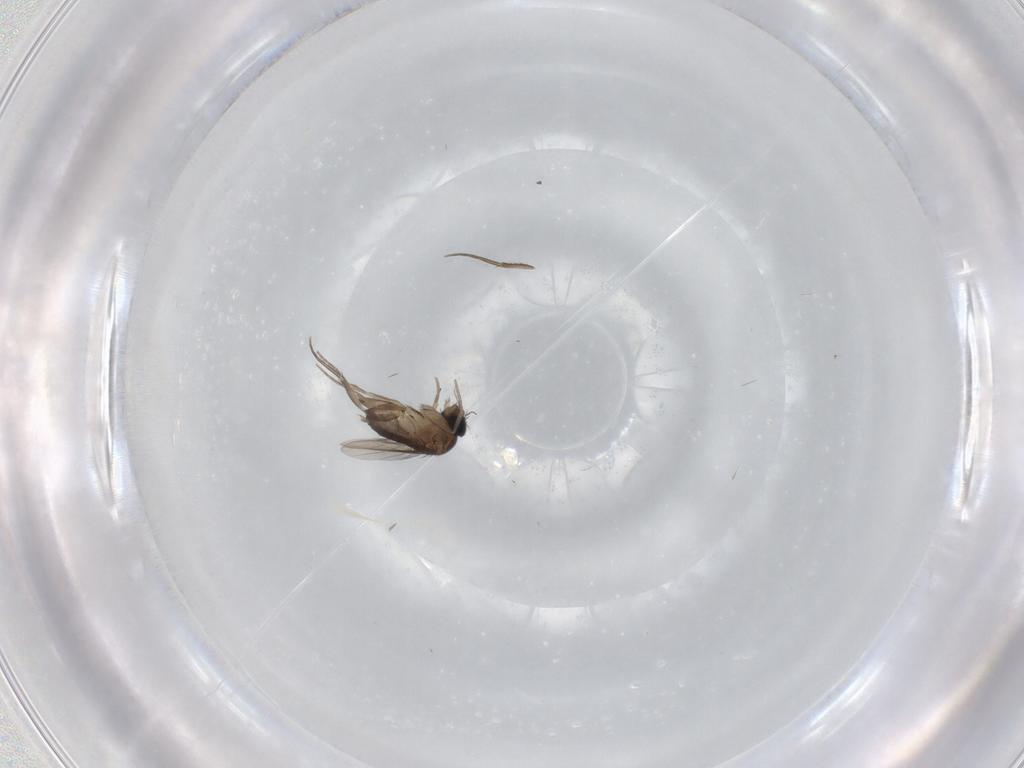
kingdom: Animalia
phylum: Arthropoda
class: Insecta
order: Diptera
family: Phoridae
